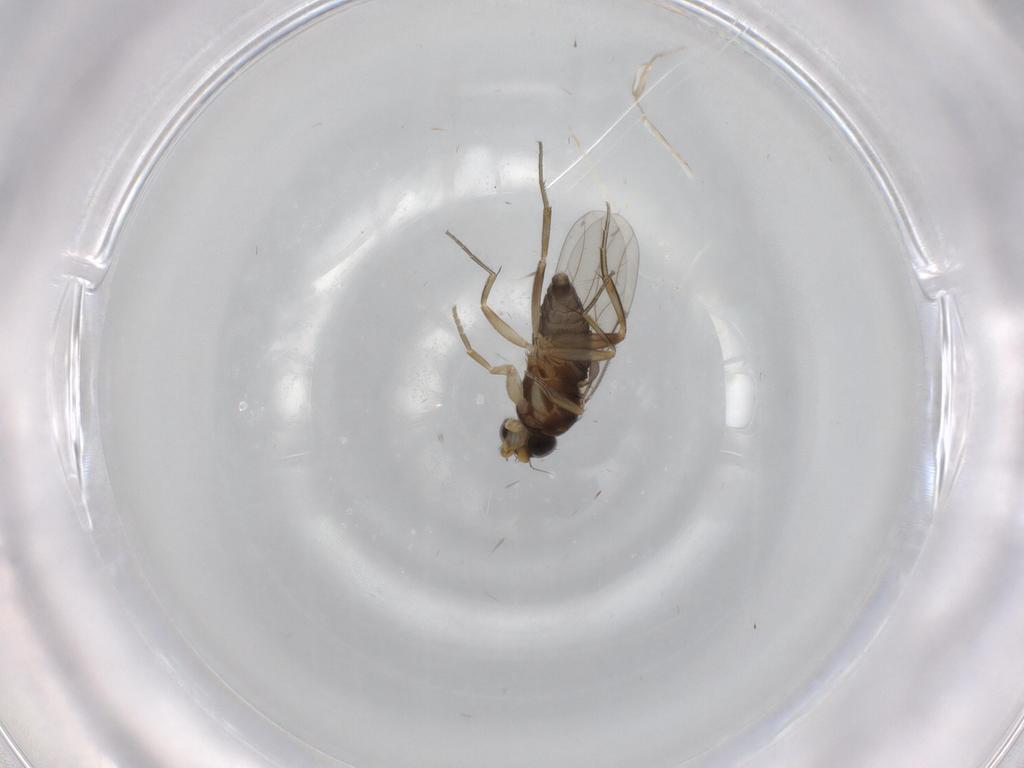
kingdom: Animalia
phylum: Arthropoda
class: Insecta
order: Diptera
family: Phoridae
